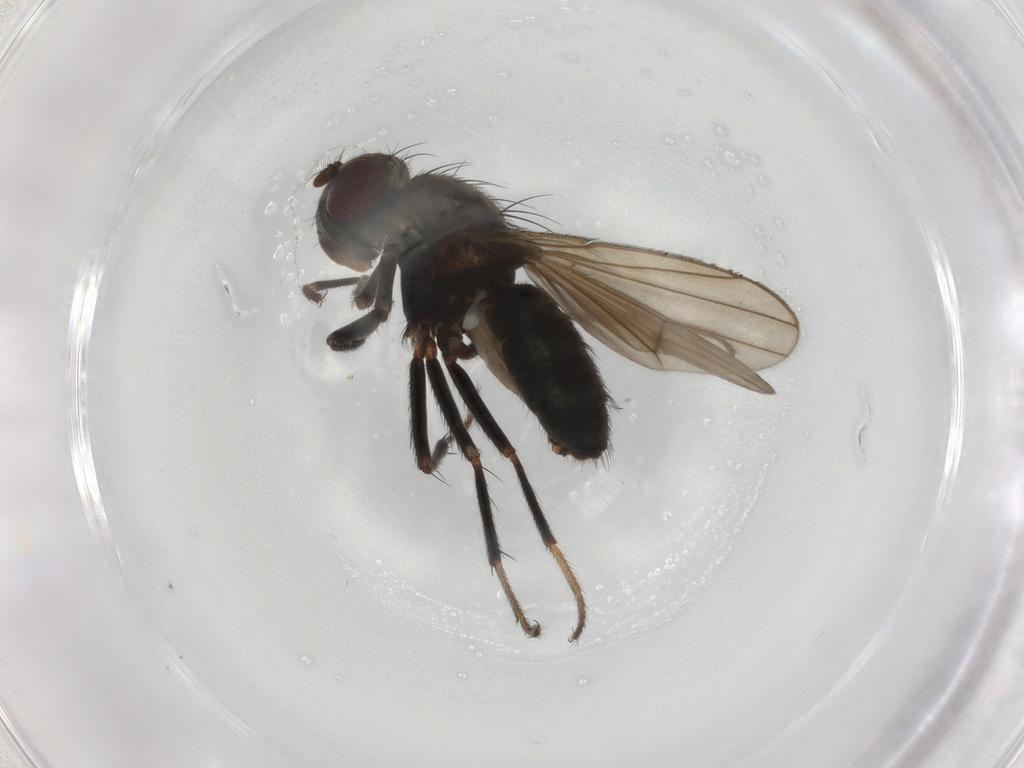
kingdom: Animalia
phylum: Arthropoda
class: Insecta
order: Diptera
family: Ephydridae
